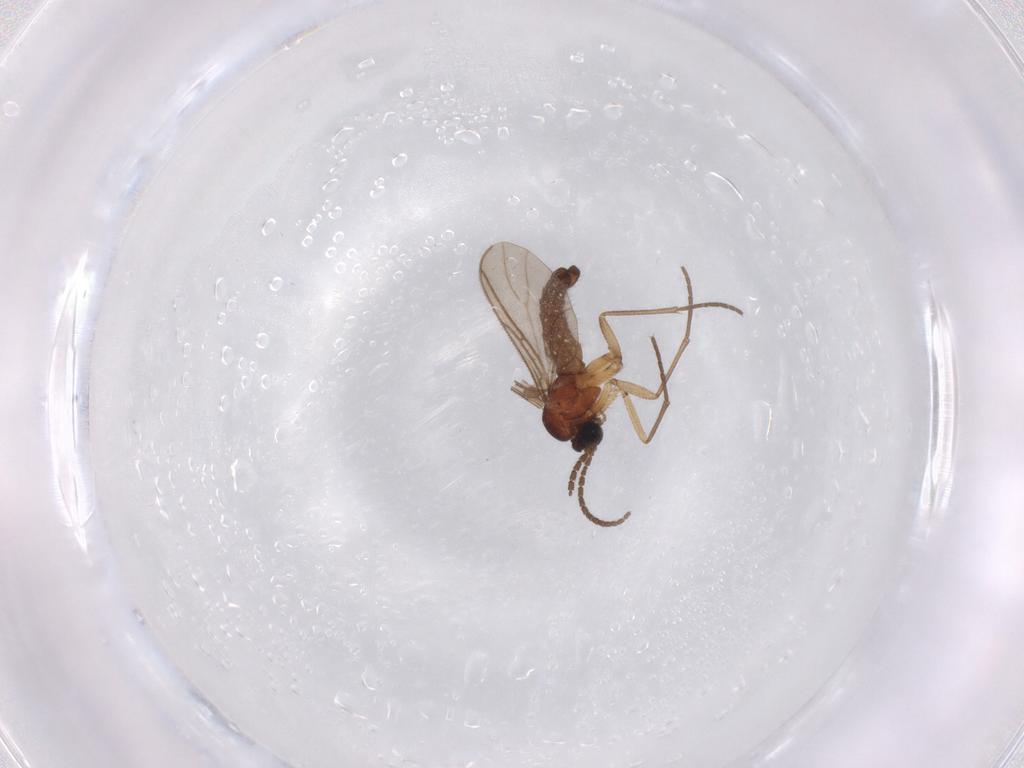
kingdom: Animalia
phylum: Arthropoda
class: Insecta
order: Diptera
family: Sciaridae
